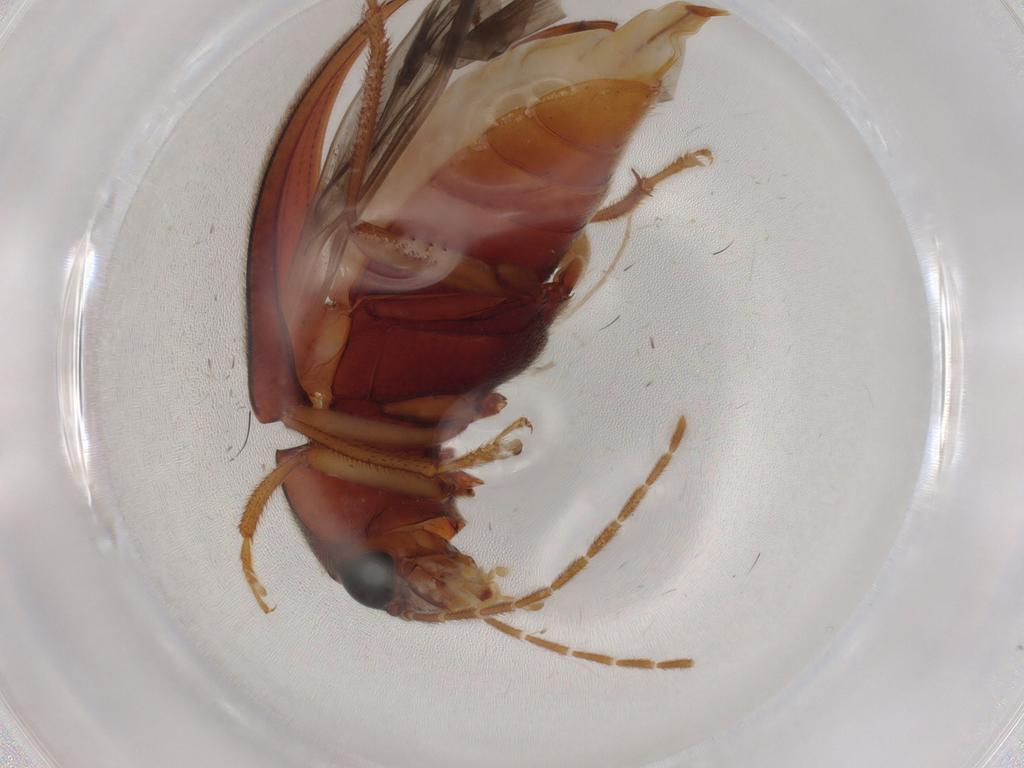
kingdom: Animalia
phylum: Arthropoda
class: Insecta
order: Coleoptera
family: Ptilodactylidae
